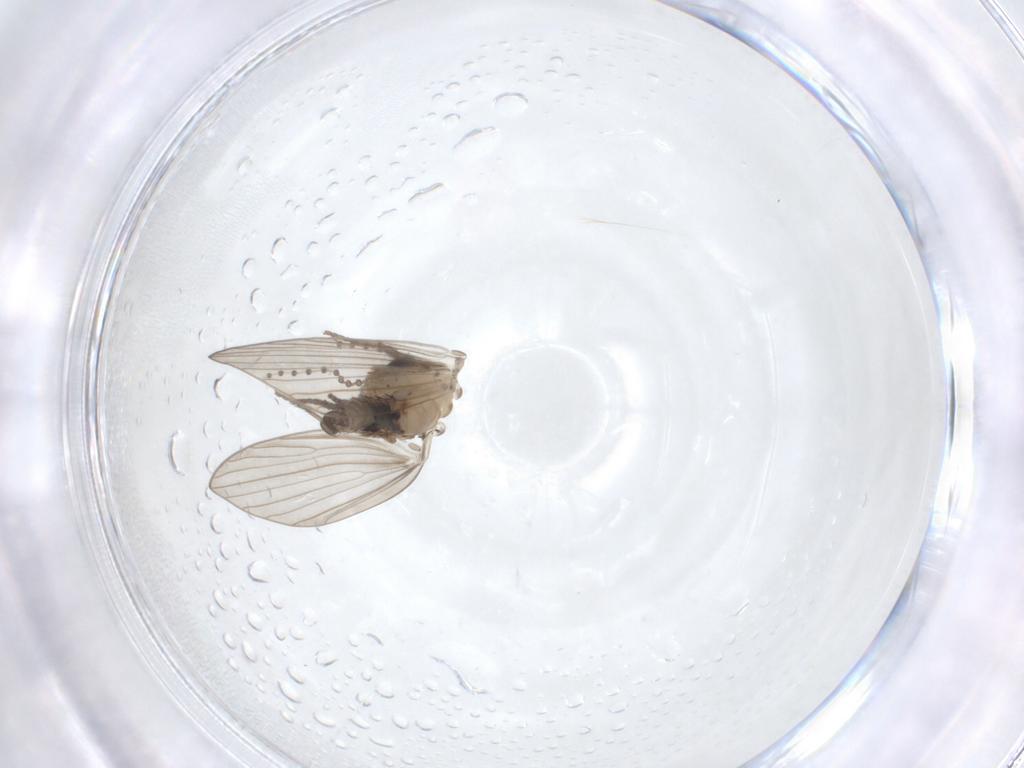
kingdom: Animalia
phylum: Arthropoda
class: Insecta
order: Diptera
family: Psychodidae
